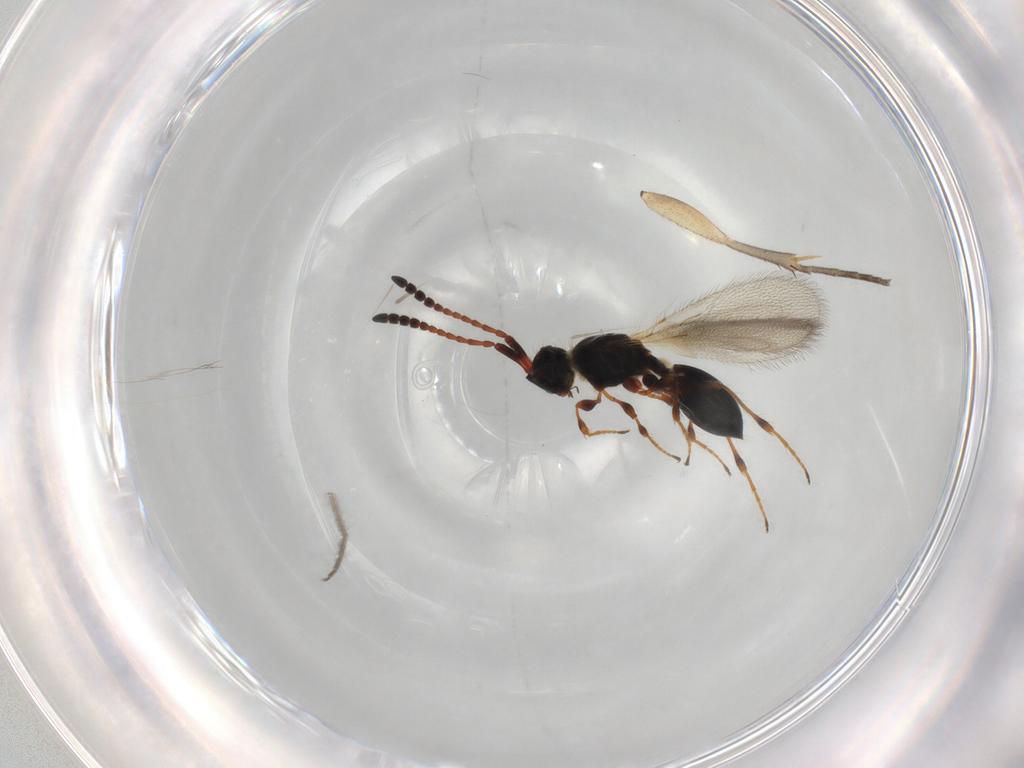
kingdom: Animalia
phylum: Arthropoda
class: Insecta
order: Hymenoptera
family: Diapriidae
